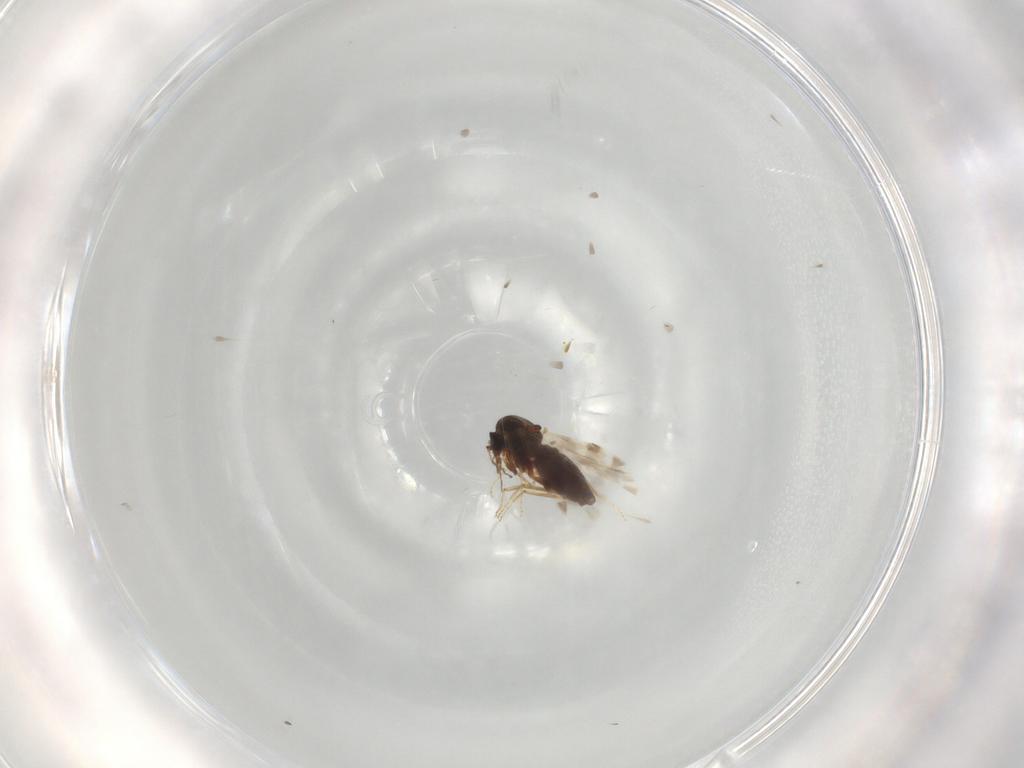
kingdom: Animalia
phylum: Arthropoda
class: Insecta
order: Diptera
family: Ceratopogonidae
